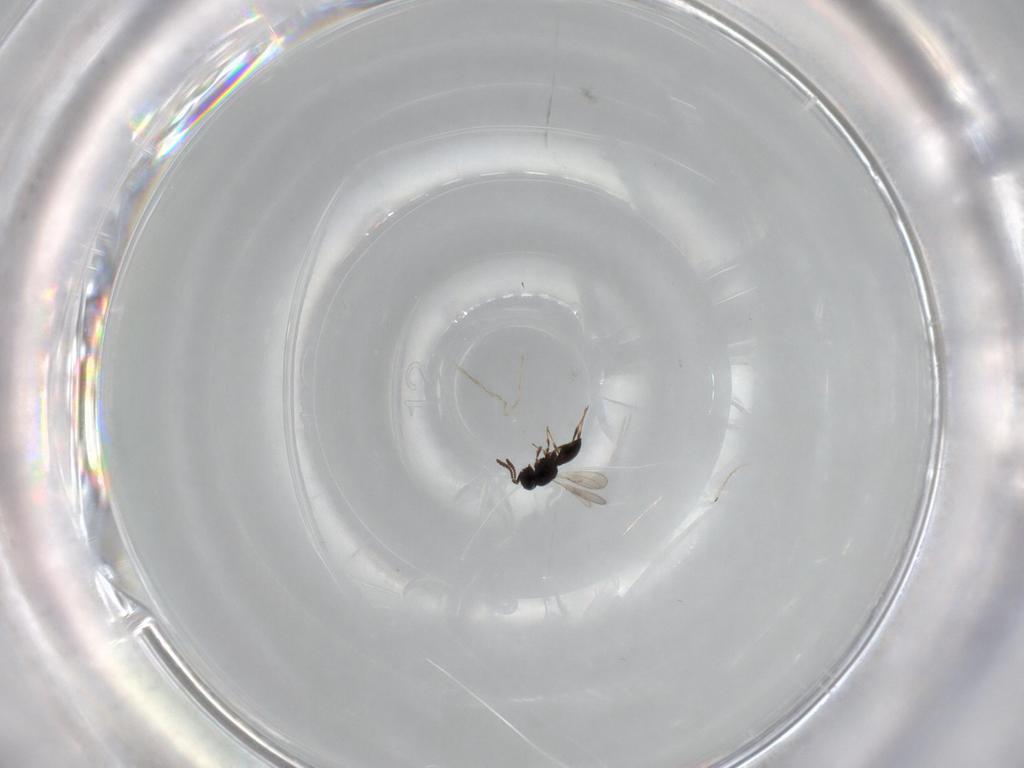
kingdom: Animalia
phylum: Arthropoda
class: Insecta
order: Hymenoptera
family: Scelionidae
